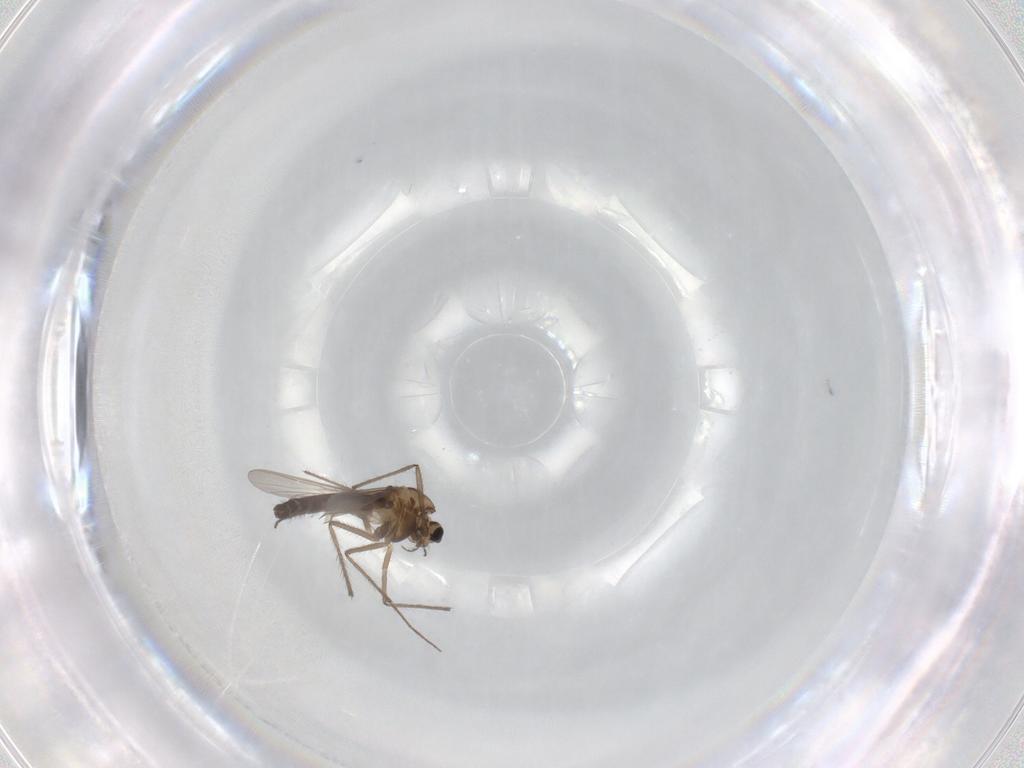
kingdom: Animalia
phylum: Arthropoda
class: Insecta
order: Diptera
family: Chironomidae
